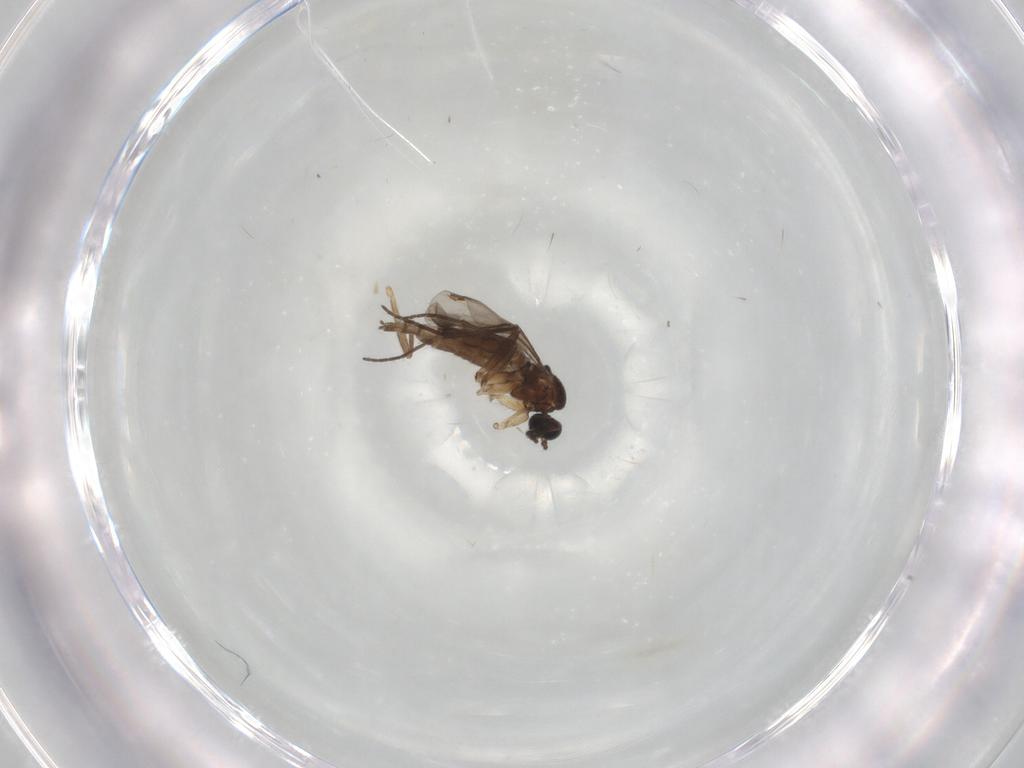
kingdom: Animalia
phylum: Arthropoda
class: Insecta
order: Diptera
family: Sciaridae
